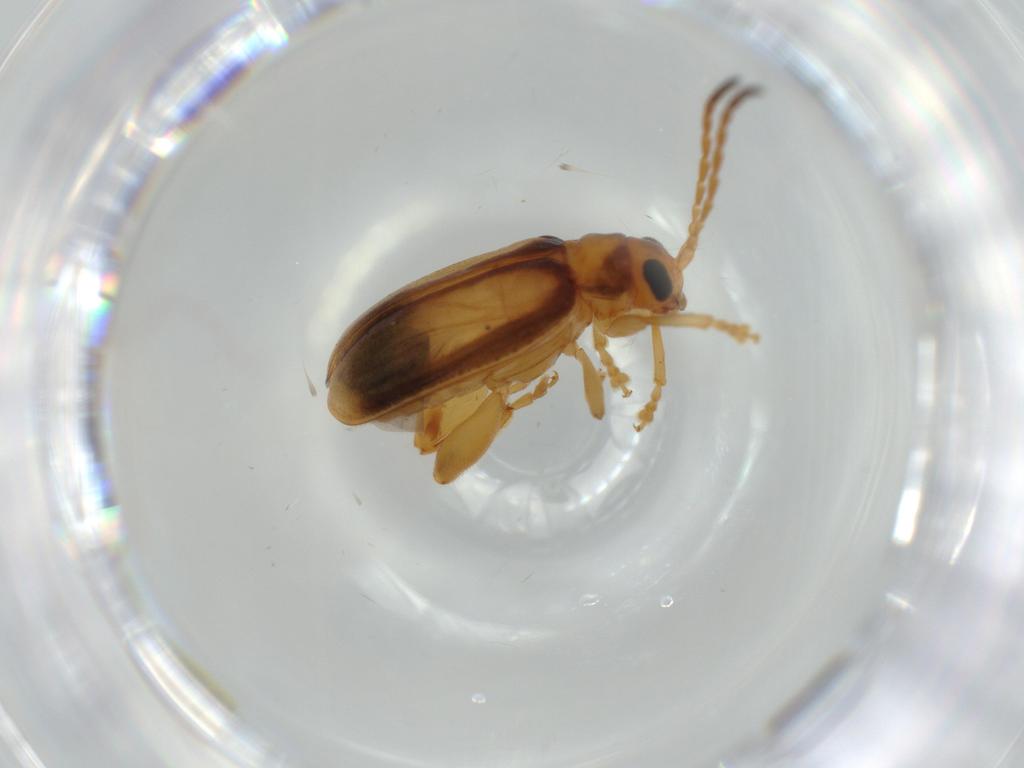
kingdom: Animalia
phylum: Arthropoda
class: Insecta
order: Coleoptera
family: Chrysomelidae
